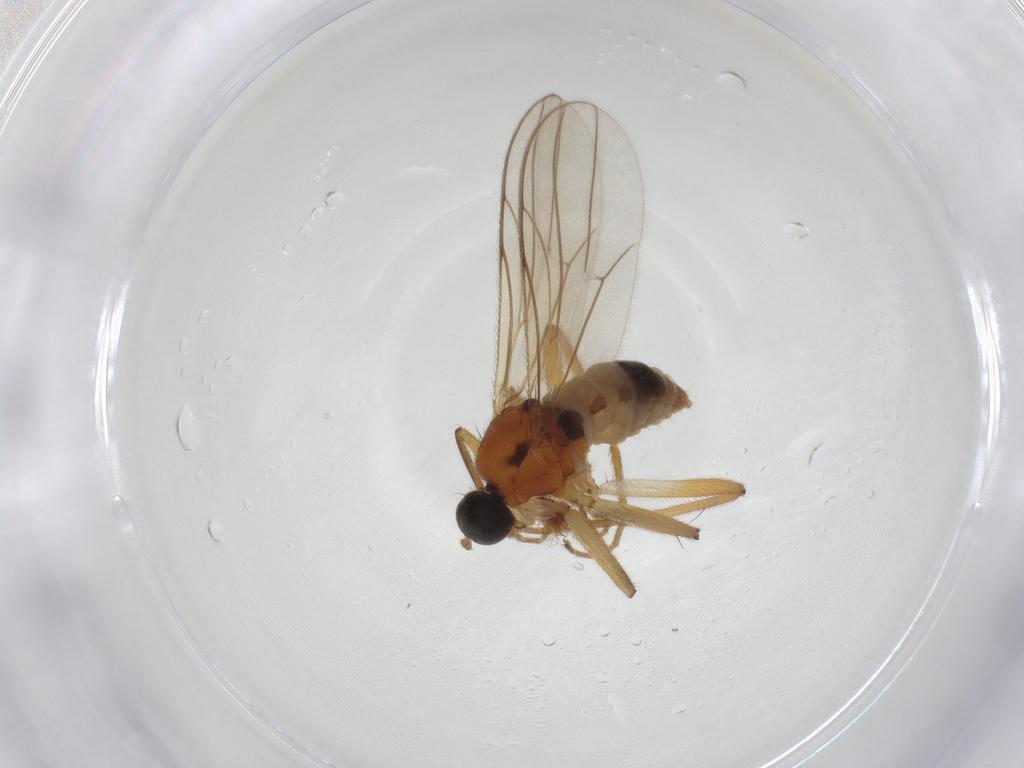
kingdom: Animalia
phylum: Arthropoda
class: Insecta
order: Diptera
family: Hybotidae
